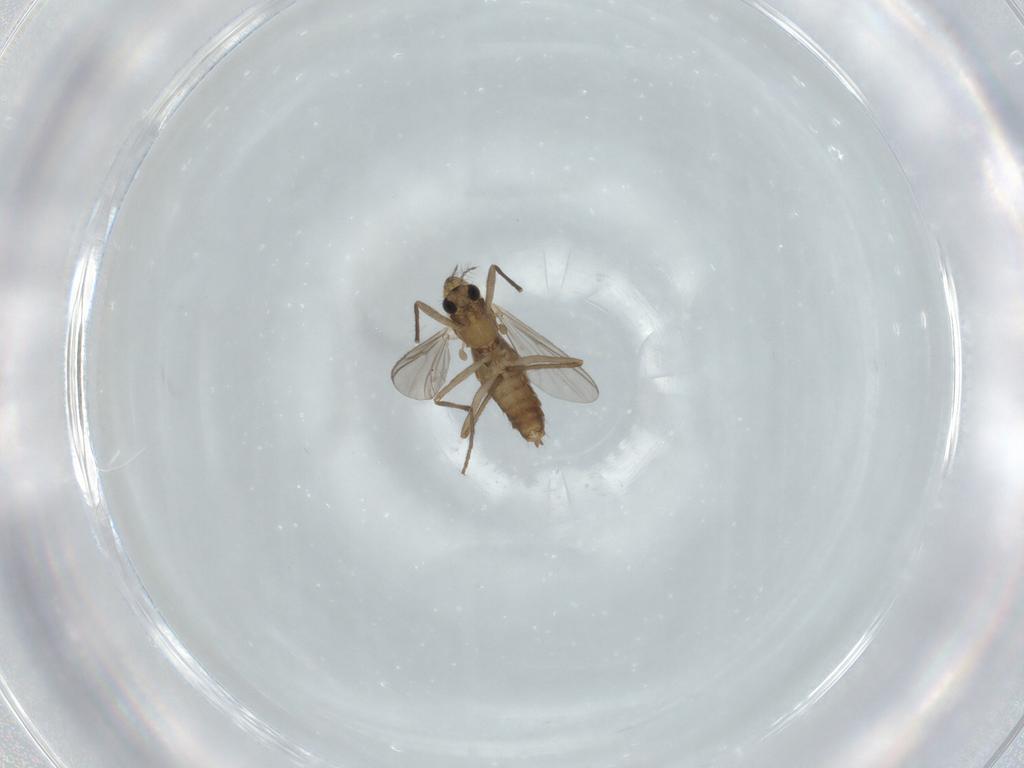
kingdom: Animalia
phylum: Arthropoda
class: Insecta
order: Diptera
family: Chironomidae
